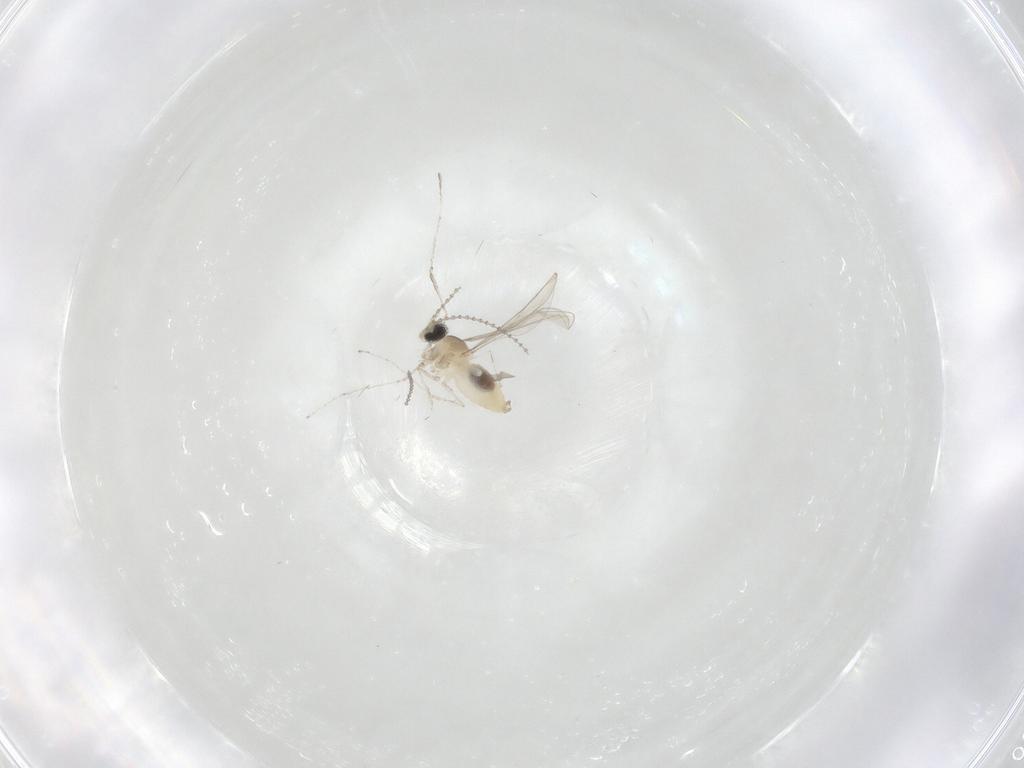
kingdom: Animalia
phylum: Arthropoda
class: Insecta
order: Diptera
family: Cecidomyiidae
